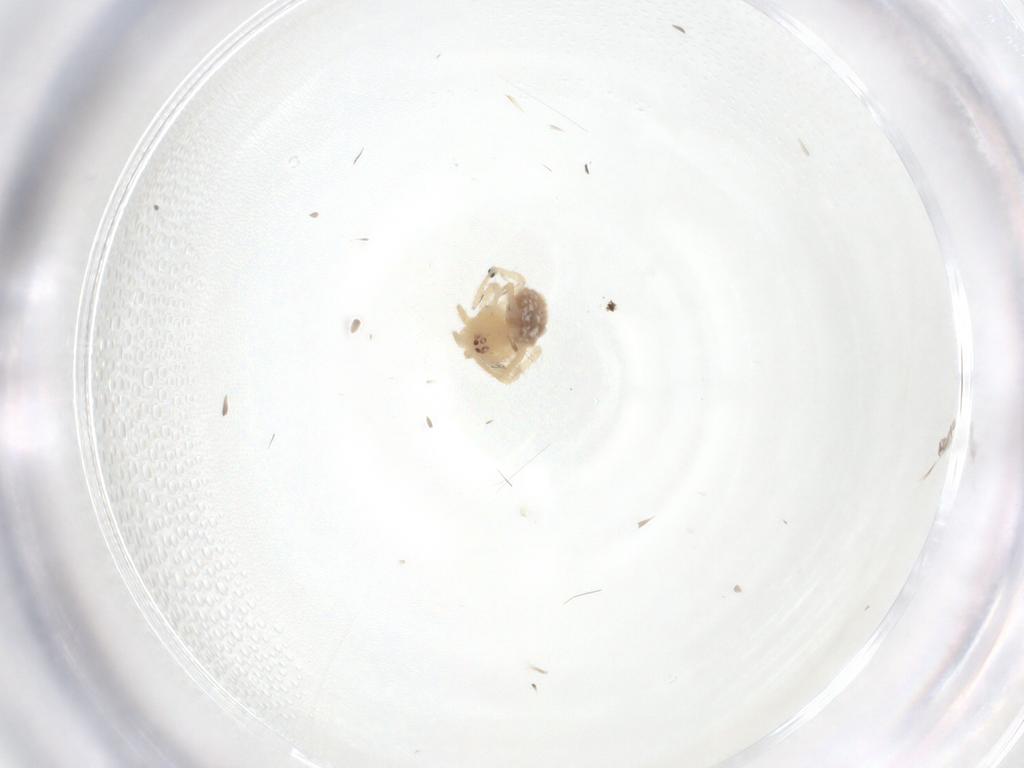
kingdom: Animalia
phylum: Arthropoda
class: Arachnida
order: Araneae
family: Theridiidae
